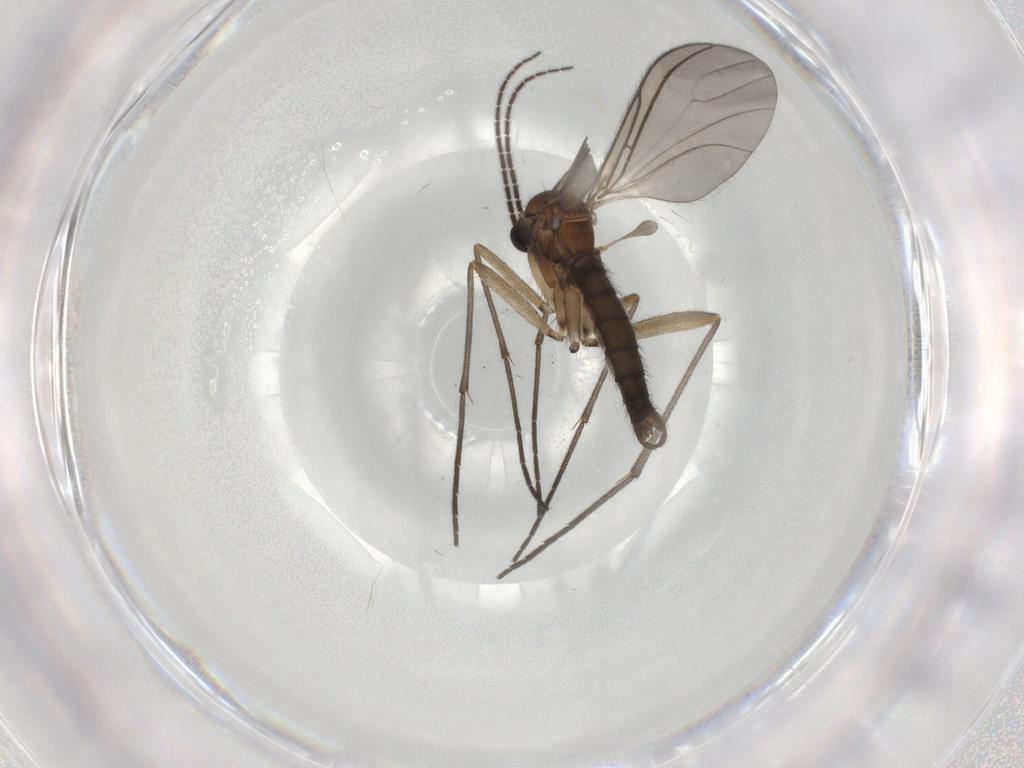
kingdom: Animalia
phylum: Arthropoda
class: Insecta
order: Diptera
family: Sciaridae
